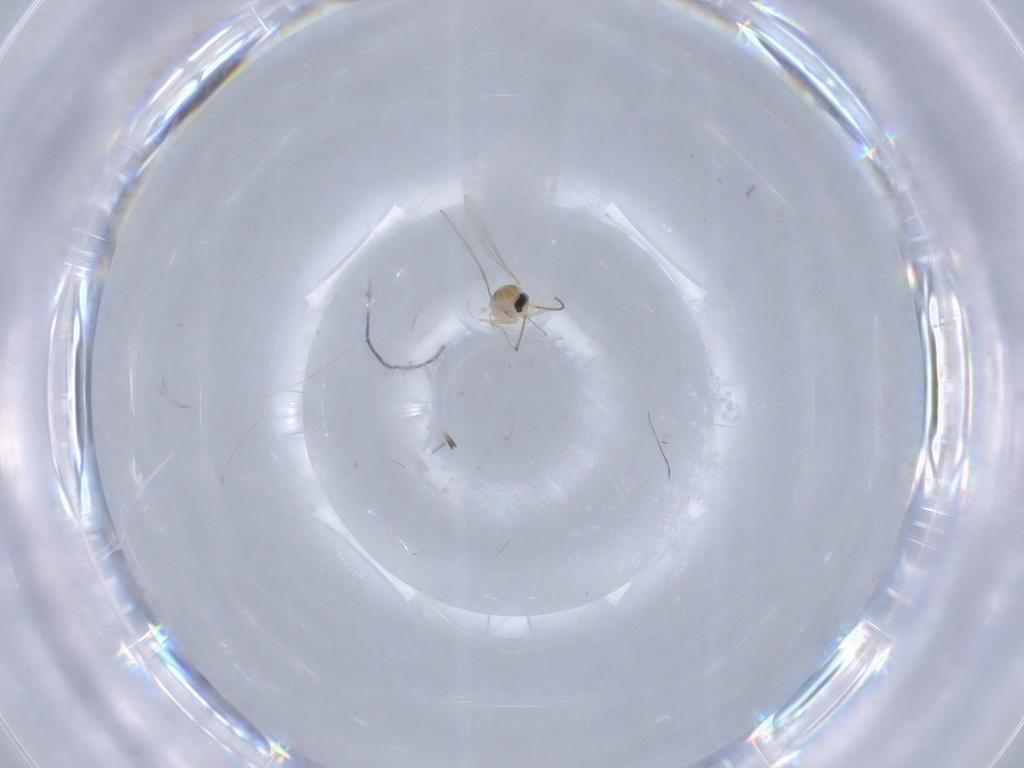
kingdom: Animalia
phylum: Arthropoda
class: Insecta
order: Diptera
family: Cecidomyiidae
